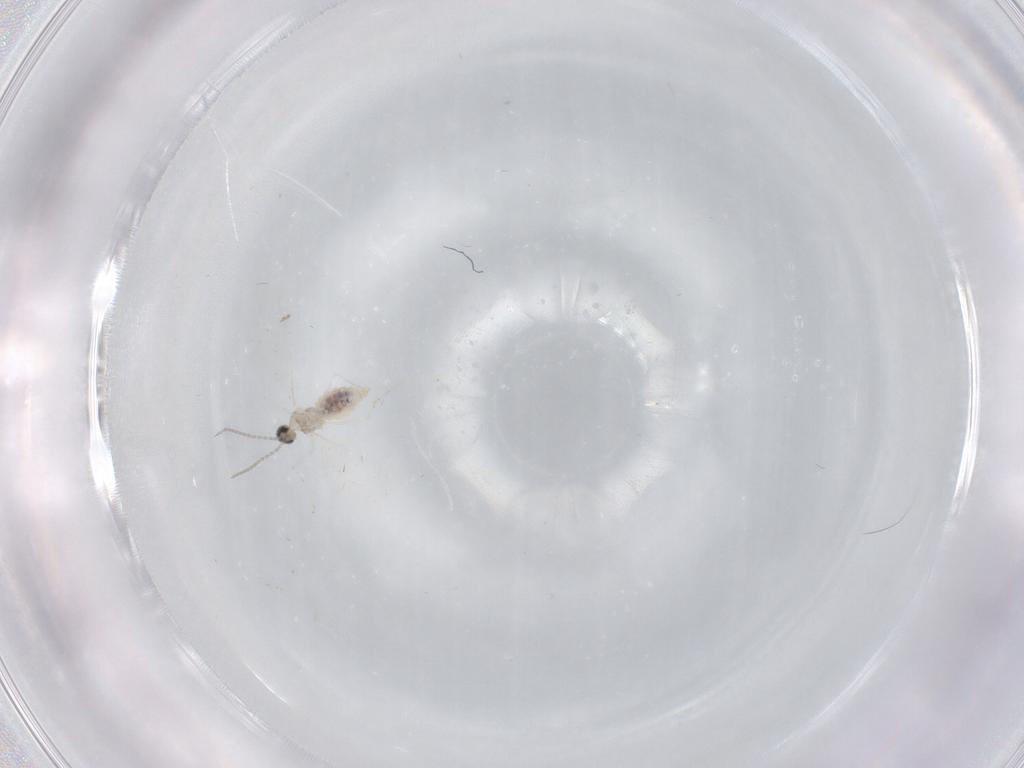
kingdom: Animalia
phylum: Arthropoda
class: Insecta
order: Diptera
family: Cecidomyiidae
